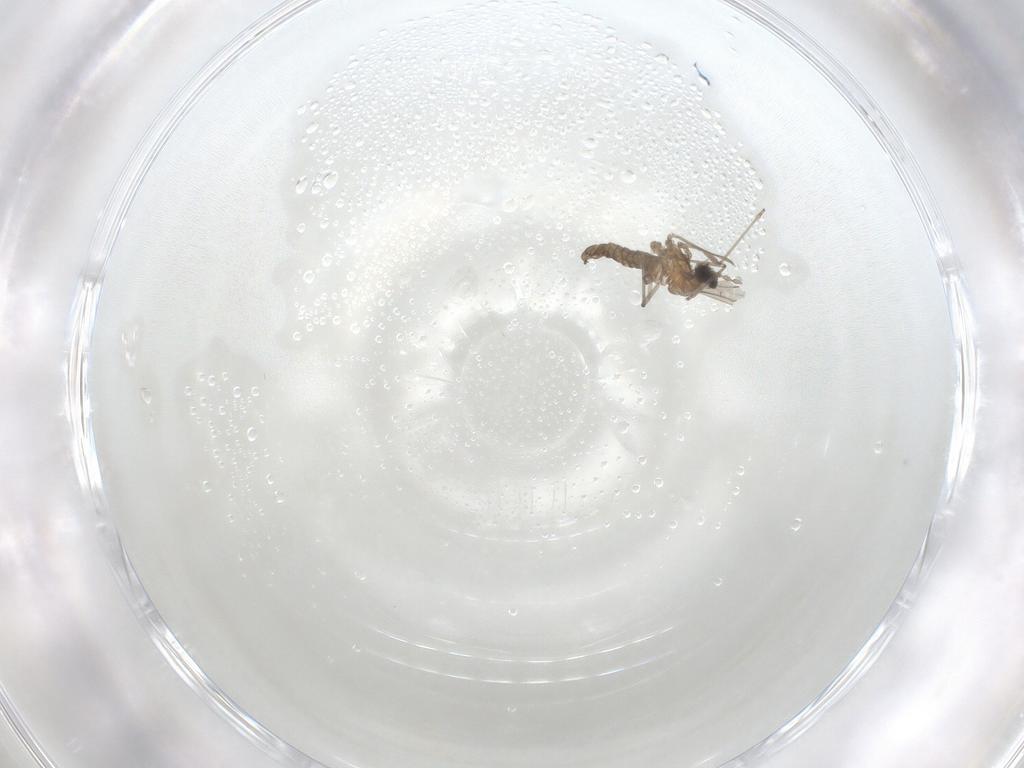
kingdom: Animalia
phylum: Arthropoda
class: Insecta
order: Diptera
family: Cecidomyiidae
